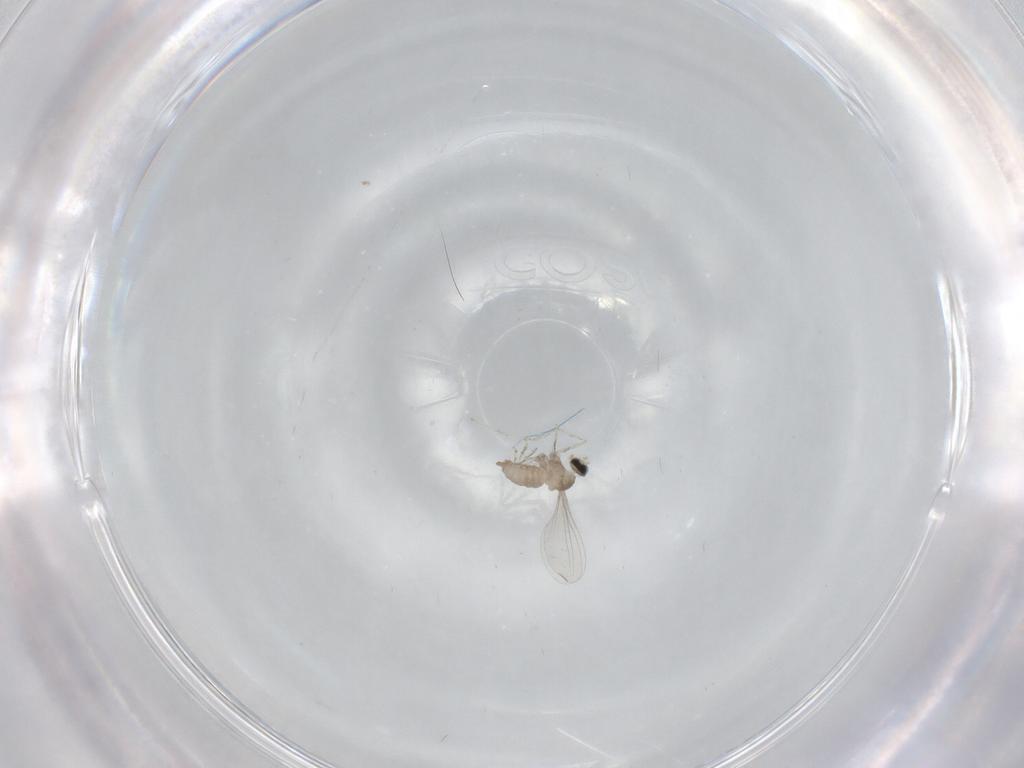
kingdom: Animalia
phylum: Arthropoda
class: Insecta
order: Diptera
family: Cecidomyiidae
